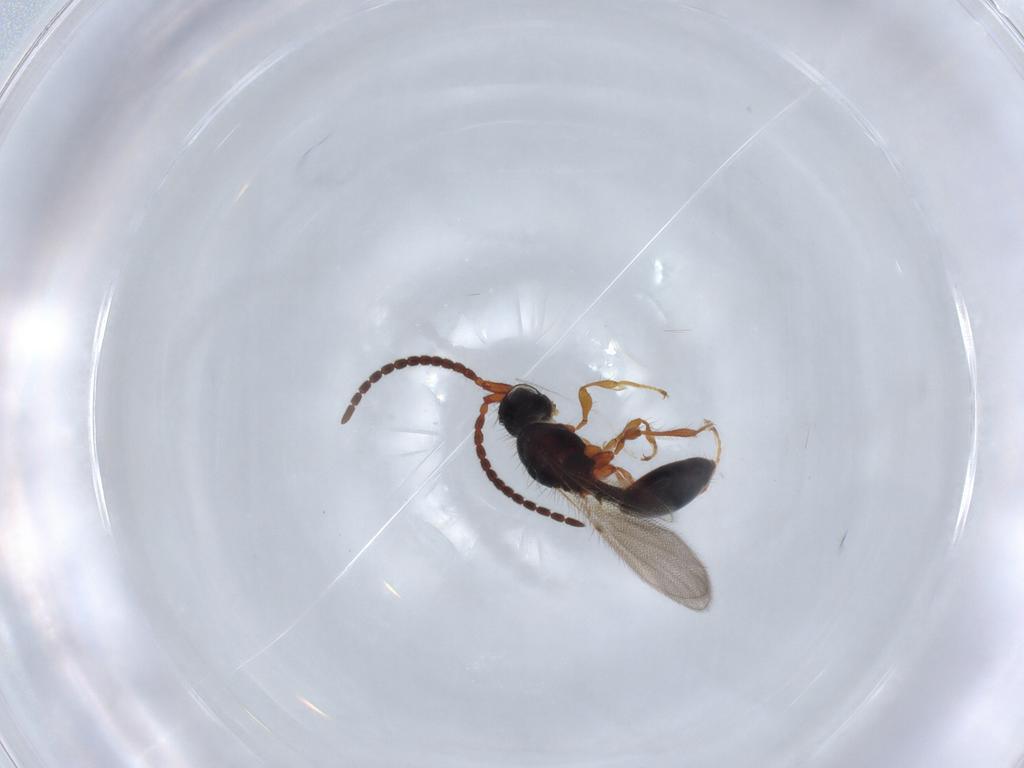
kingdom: Animalia
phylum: Arthropoda
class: Insecta
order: Hymenoptera
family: Diapriidae
